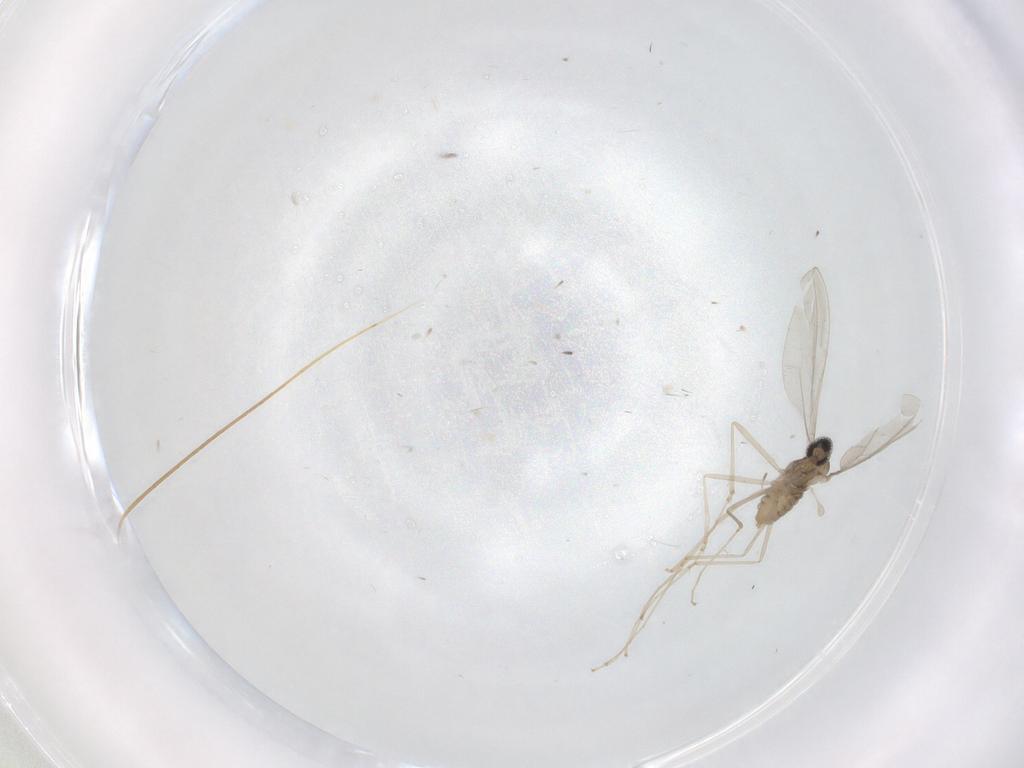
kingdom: Animalia
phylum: Arthropoda
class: Insecta
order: Diptera
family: Cecidomyiidae
